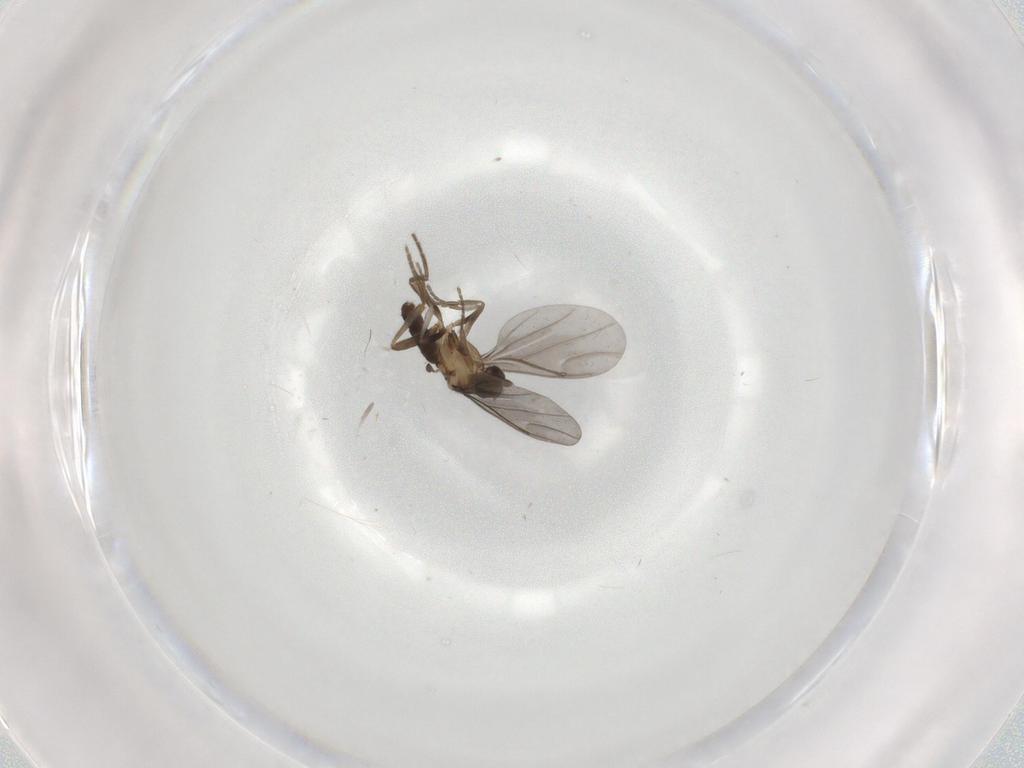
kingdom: Animalia
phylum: Arthropoda
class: Insecta
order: Diptera
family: Phoridae
